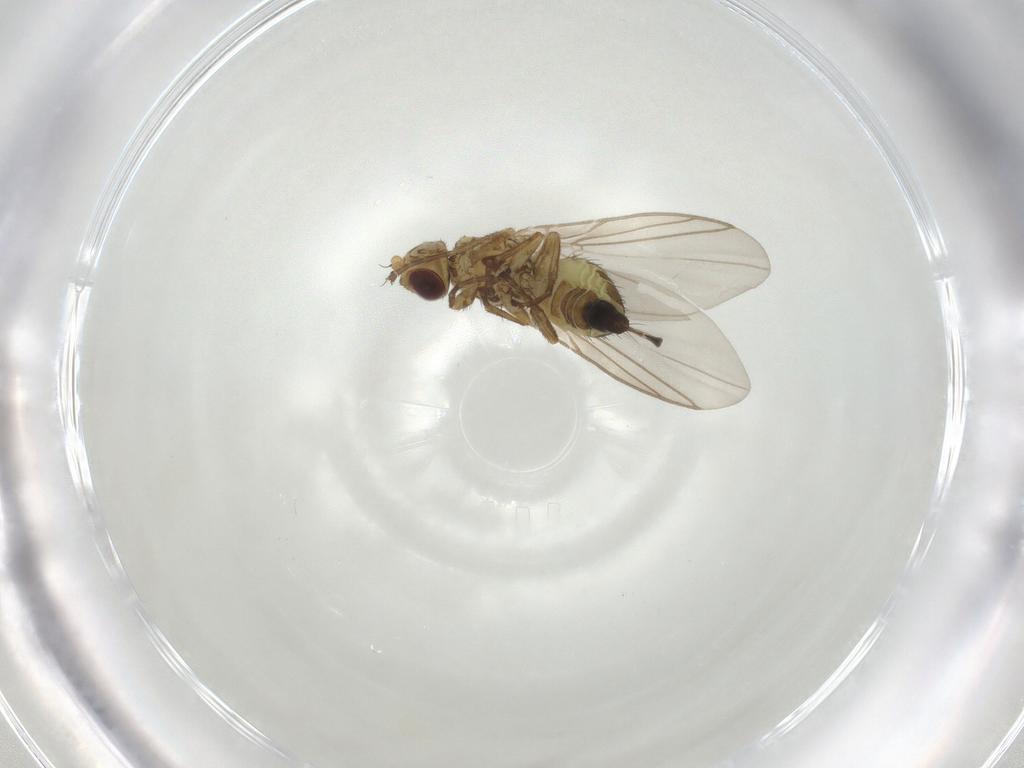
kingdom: Animalia
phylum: Arthropoda
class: Insecta
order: Diptera
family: Agromyzidae
